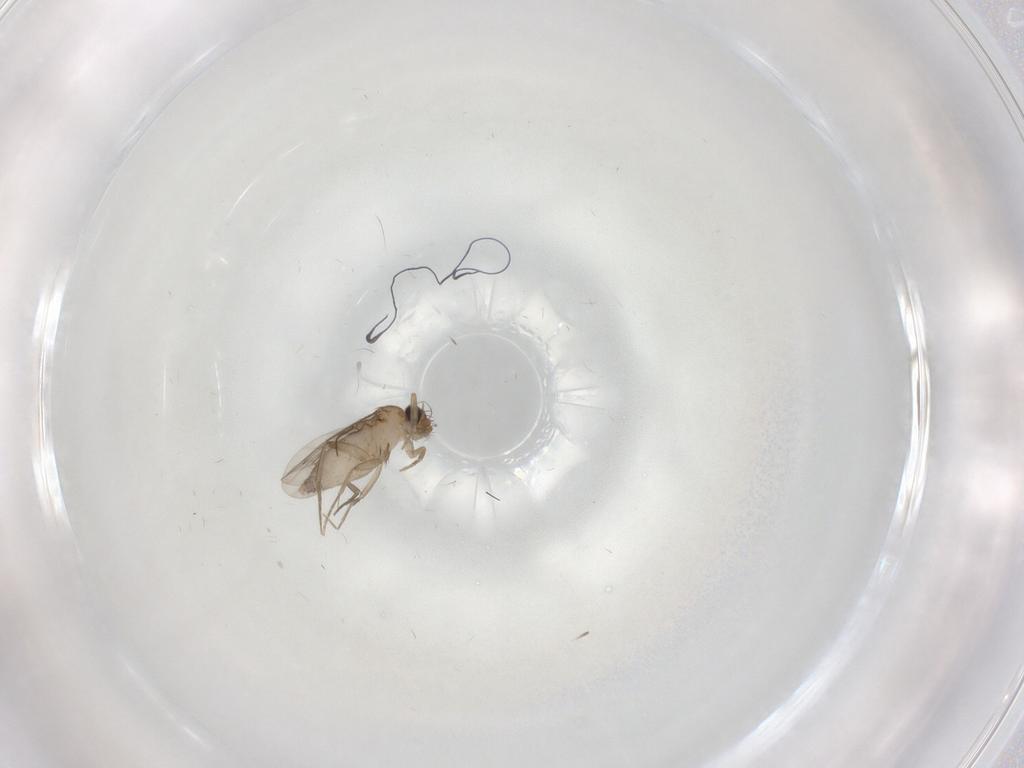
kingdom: Animalia
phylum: Arthropoda
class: Insecta
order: Diptera
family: Phoridae
